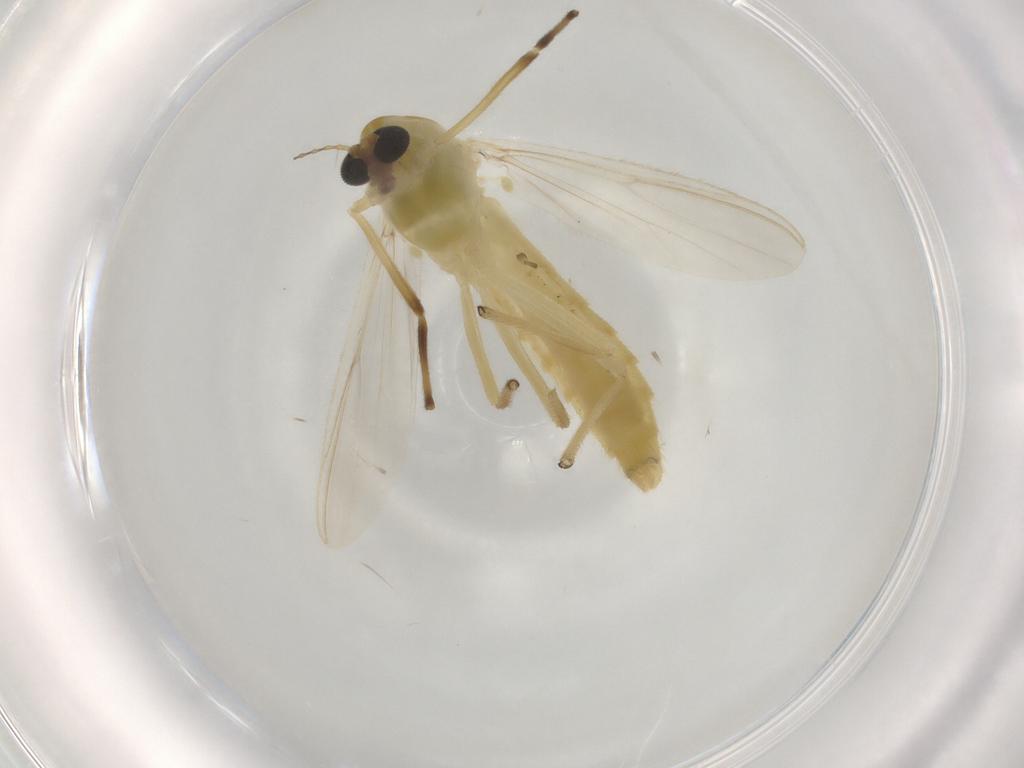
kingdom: Animalia
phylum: Arthropoda
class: Insecta
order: Diptera
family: Chironomidae
